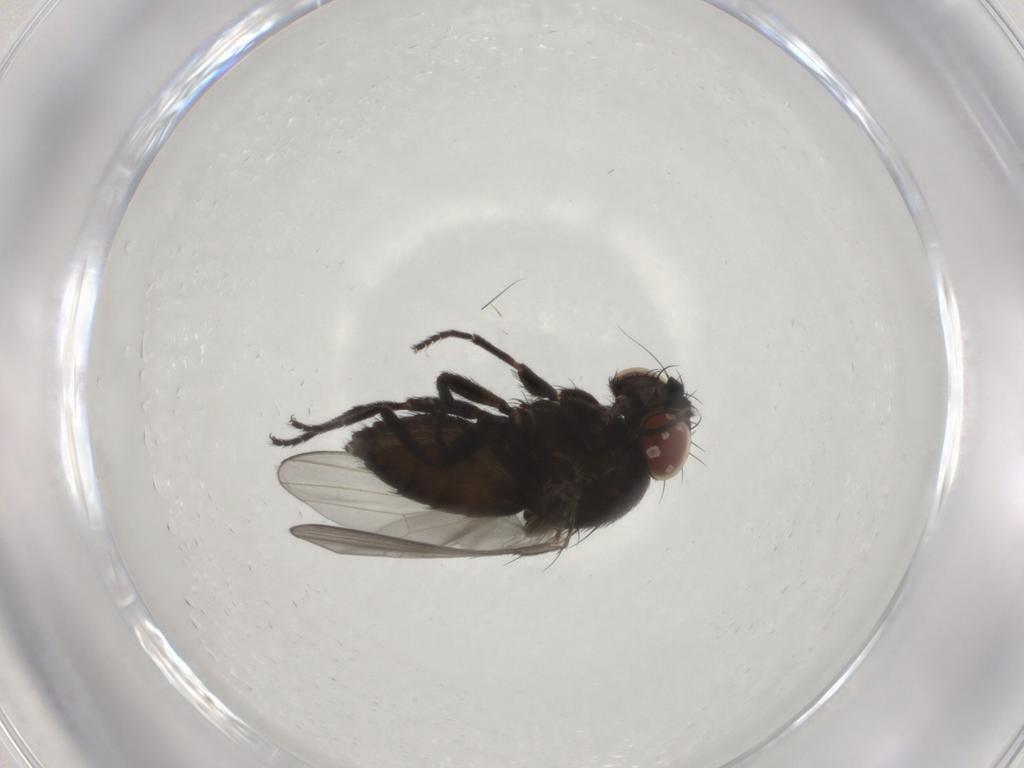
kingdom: Animalia
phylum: Arthropoda
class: Insecta
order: Diptera
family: Milichiidae
